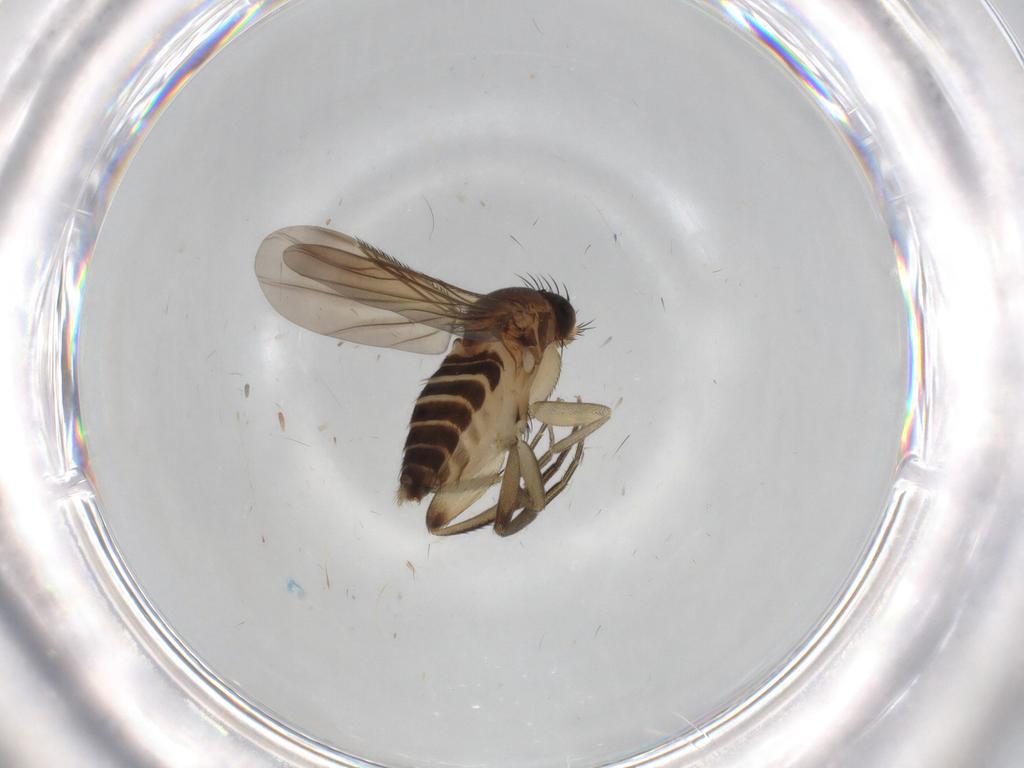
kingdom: Animalia
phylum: Arthropoda
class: Insecta
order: Diptera
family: Phoridae
